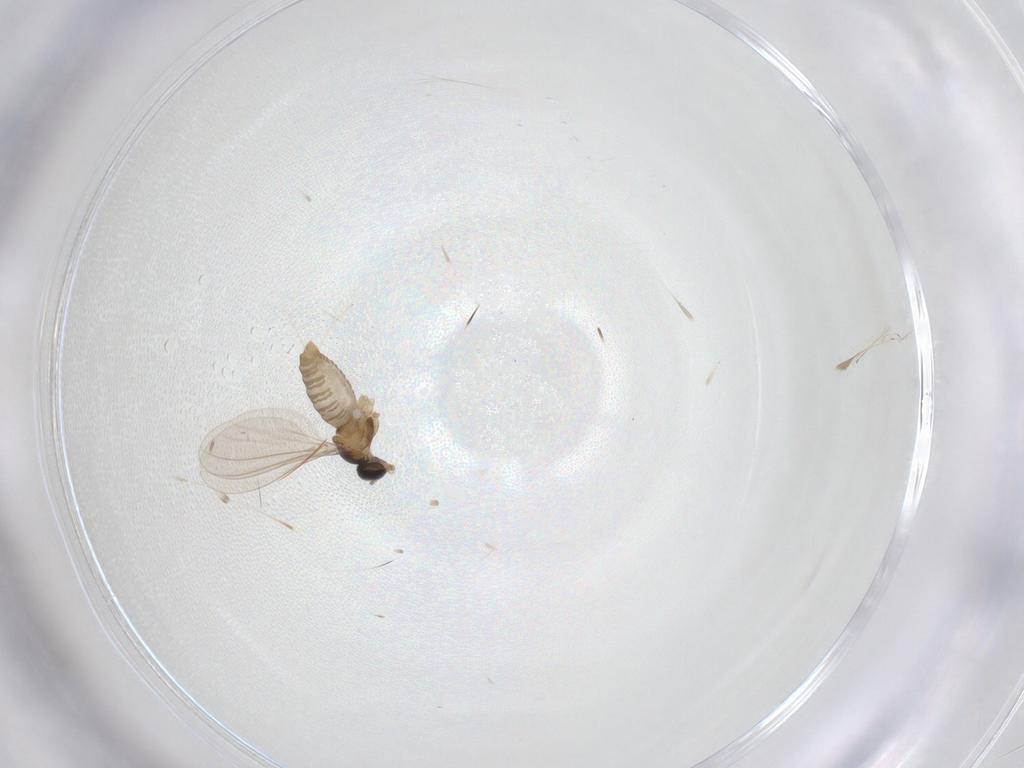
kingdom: Animalia
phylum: Arthropoda
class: Insecta
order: Diptera
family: Cecidomyiidae
